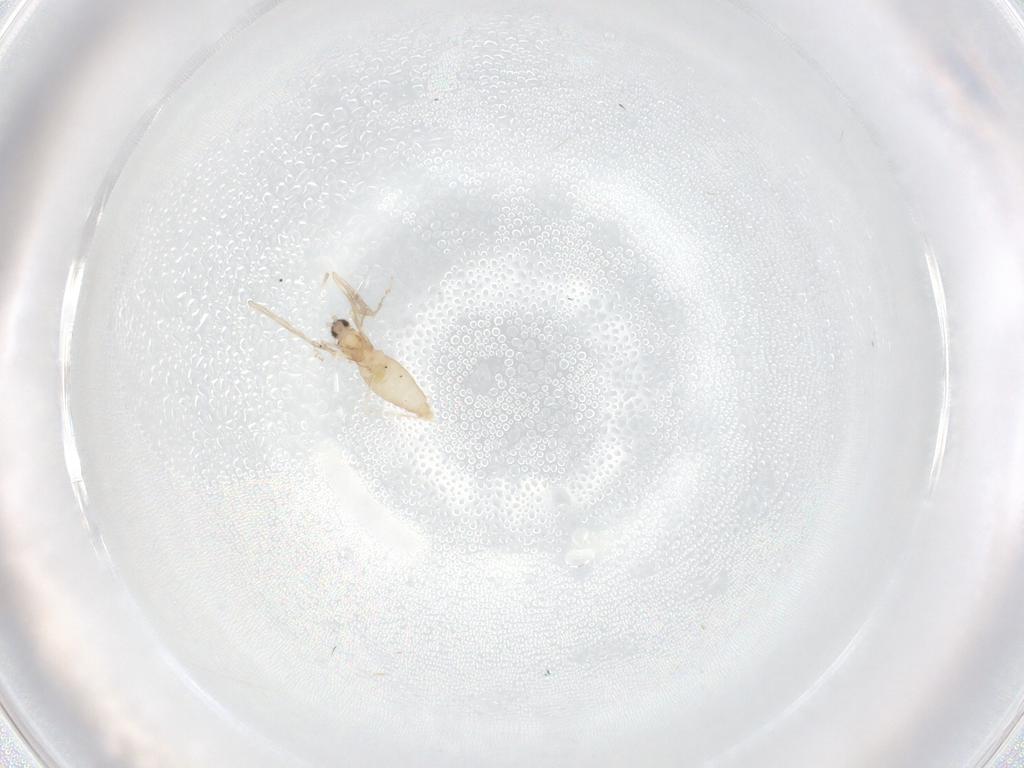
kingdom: Animalia
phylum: Arthropoda
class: Insecta
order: Diptera
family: Cecidomyiidae
